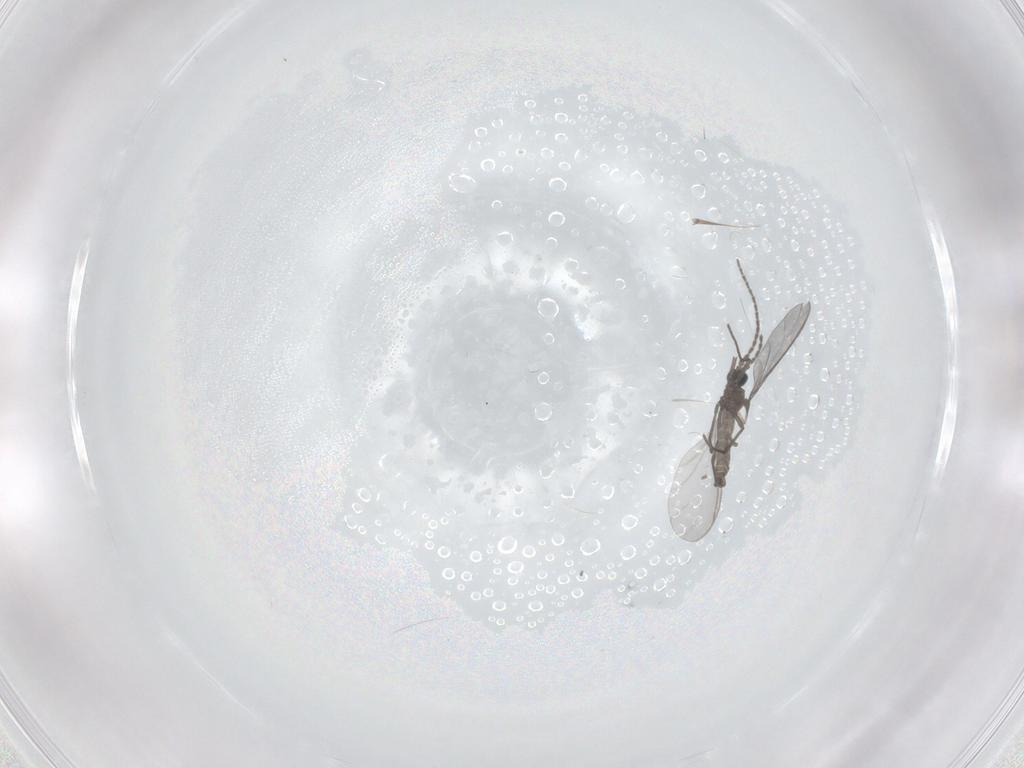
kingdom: Animalia
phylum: Arthropoda
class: Insecta
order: Diptera
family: Sciaridae
